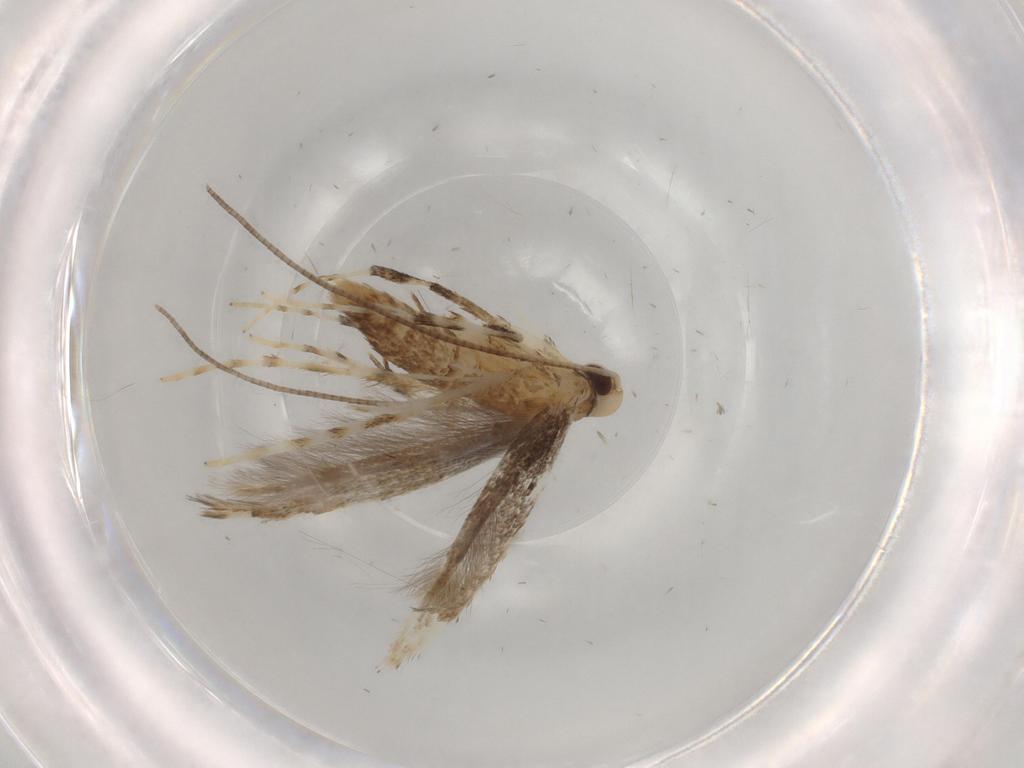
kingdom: Animalia
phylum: Arthropoda
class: Insecta
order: Lepidoptera
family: Gracillariidae
